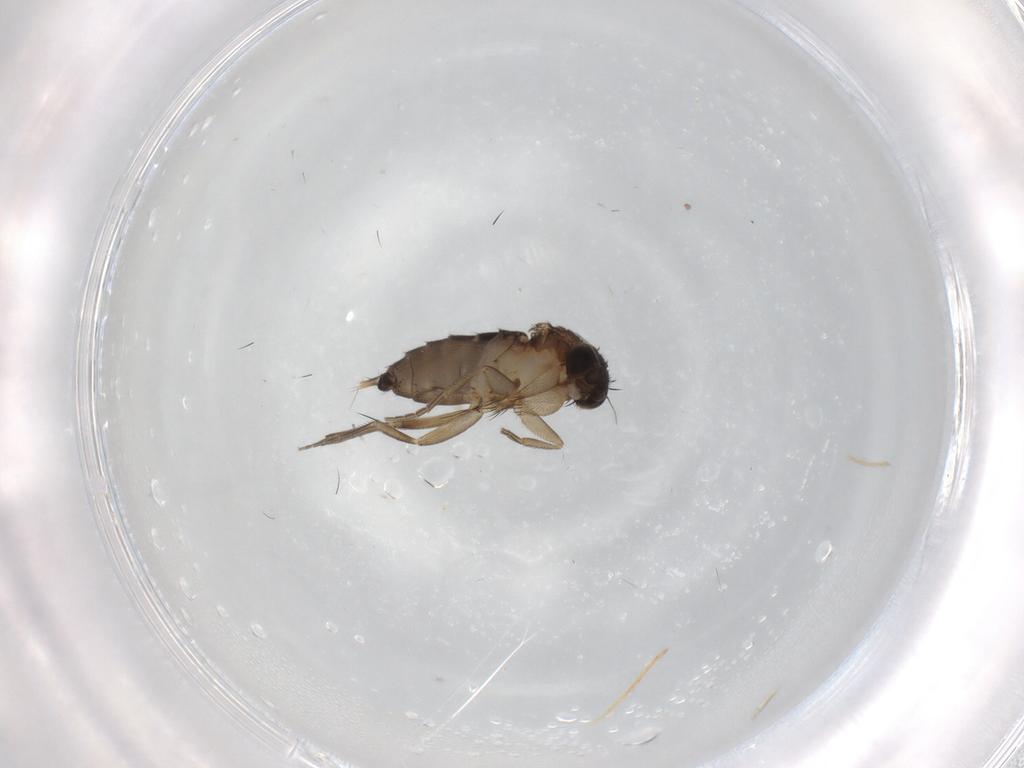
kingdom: Animalia
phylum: Arthropoda
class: Insecta
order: Diptera
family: Phoridae
